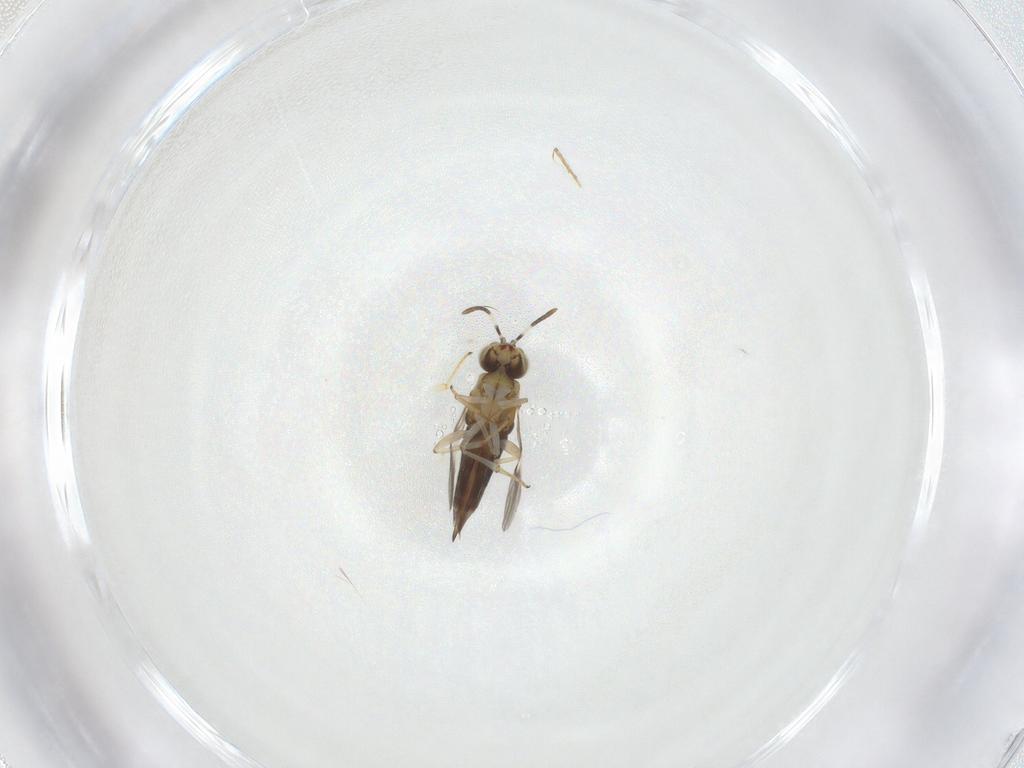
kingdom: Animalia
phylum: Arthropoda
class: Insecta
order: Hymenoptera
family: Encyrtidae
